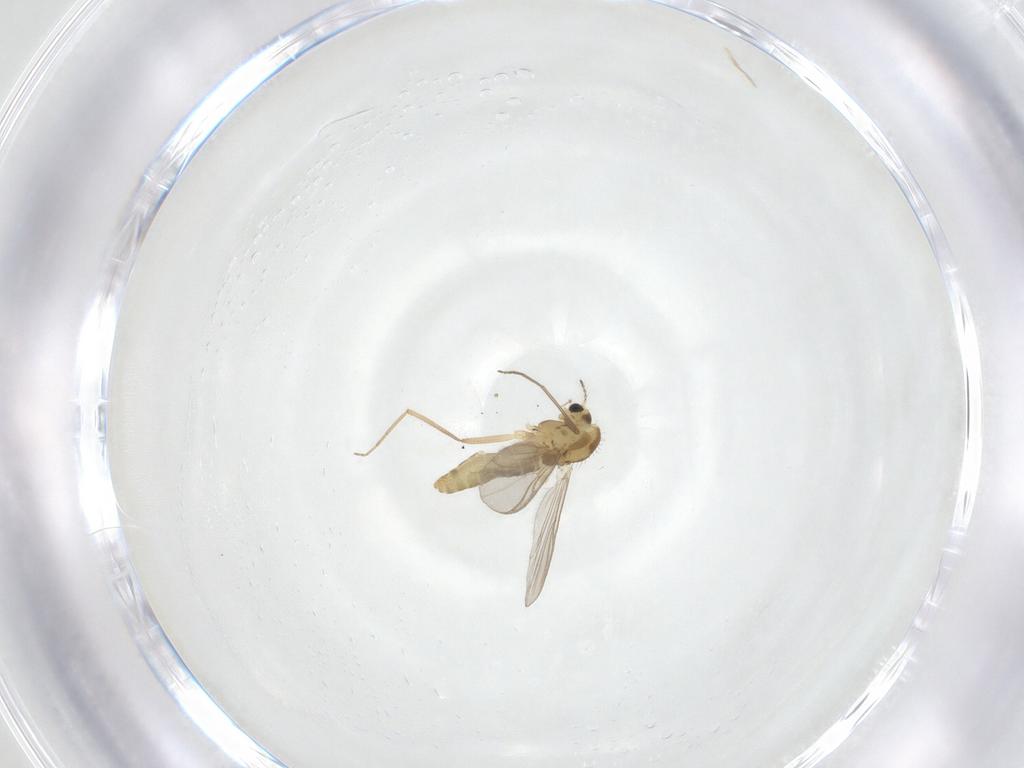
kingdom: Animalia
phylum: Arthropoda
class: Insecta
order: Diptera
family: Chironomidae
